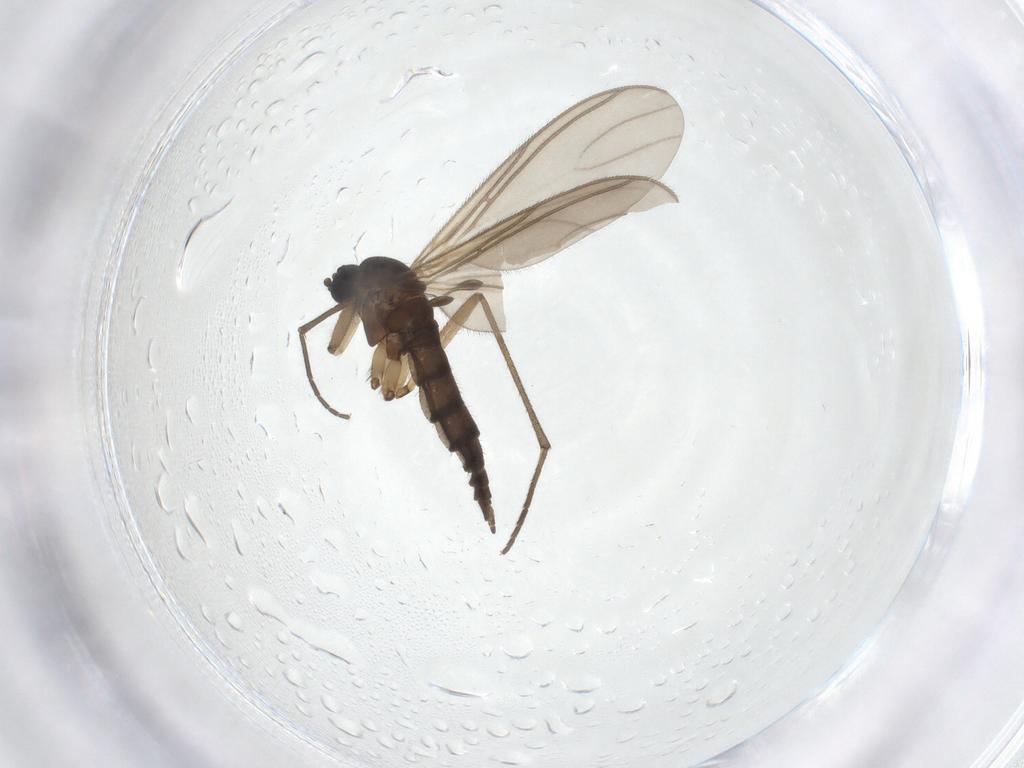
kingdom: Animalia
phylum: Arthropoda
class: Insecta
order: Diptera
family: Sciaridae
